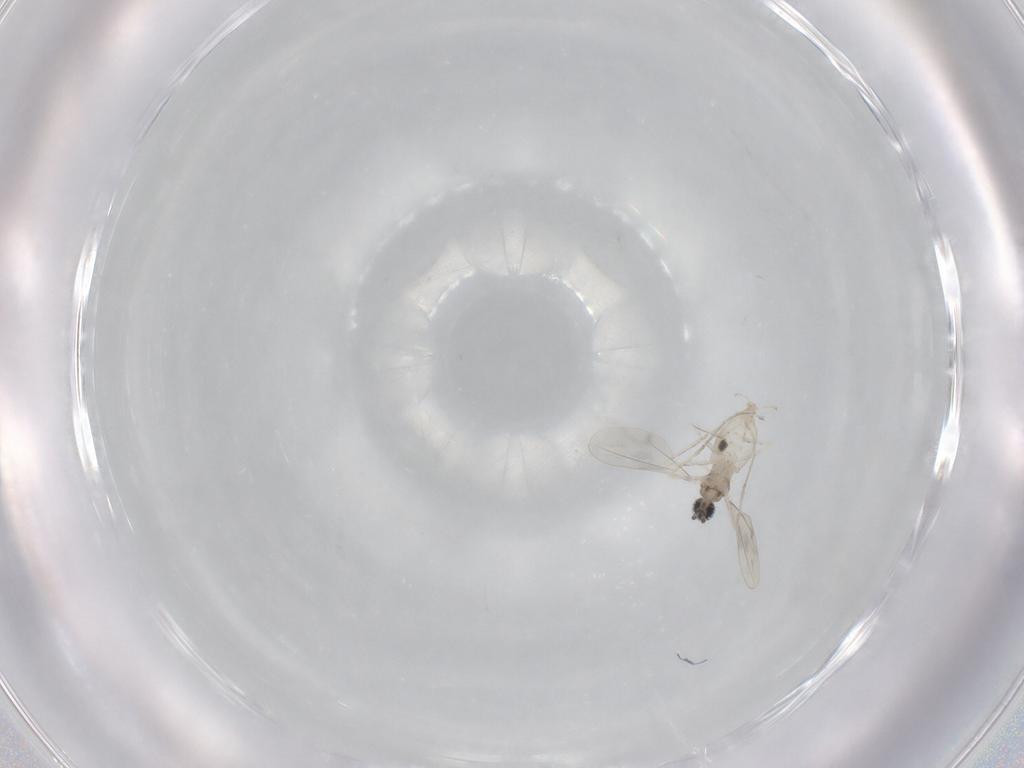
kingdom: Animalia
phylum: Arthropoda
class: Insecta
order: Diptera
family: Cecidomyiidae
